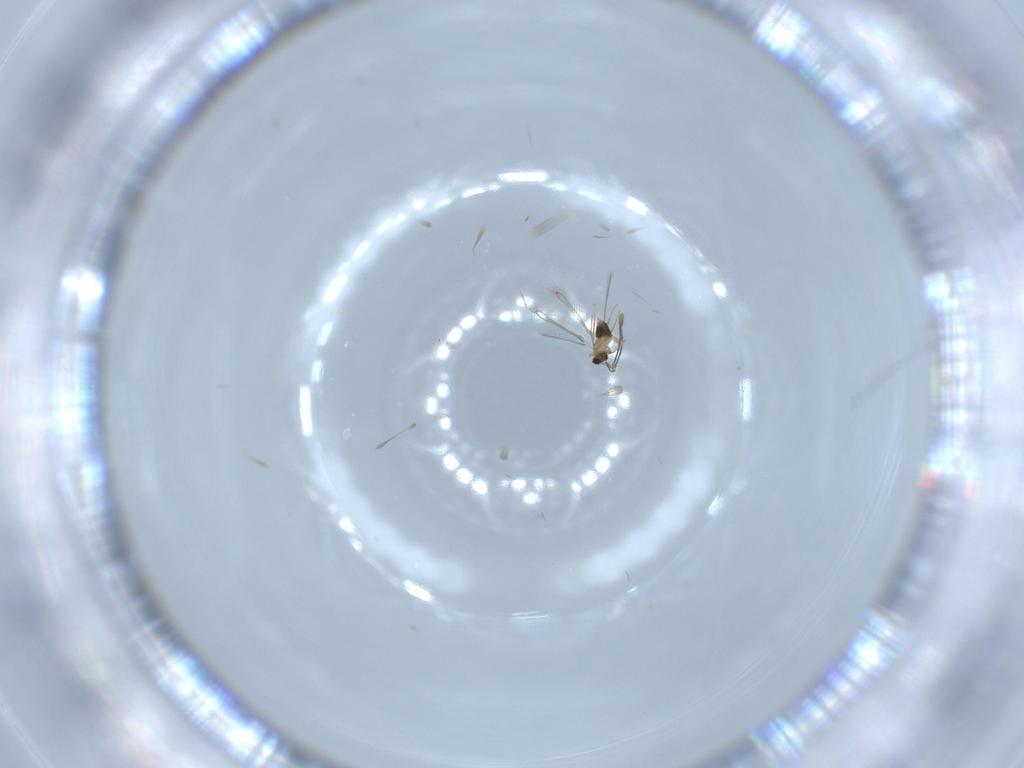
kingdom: Animalia
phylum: Arthropoda
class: Insecta
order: Hymenoptera
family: Mymaridae
